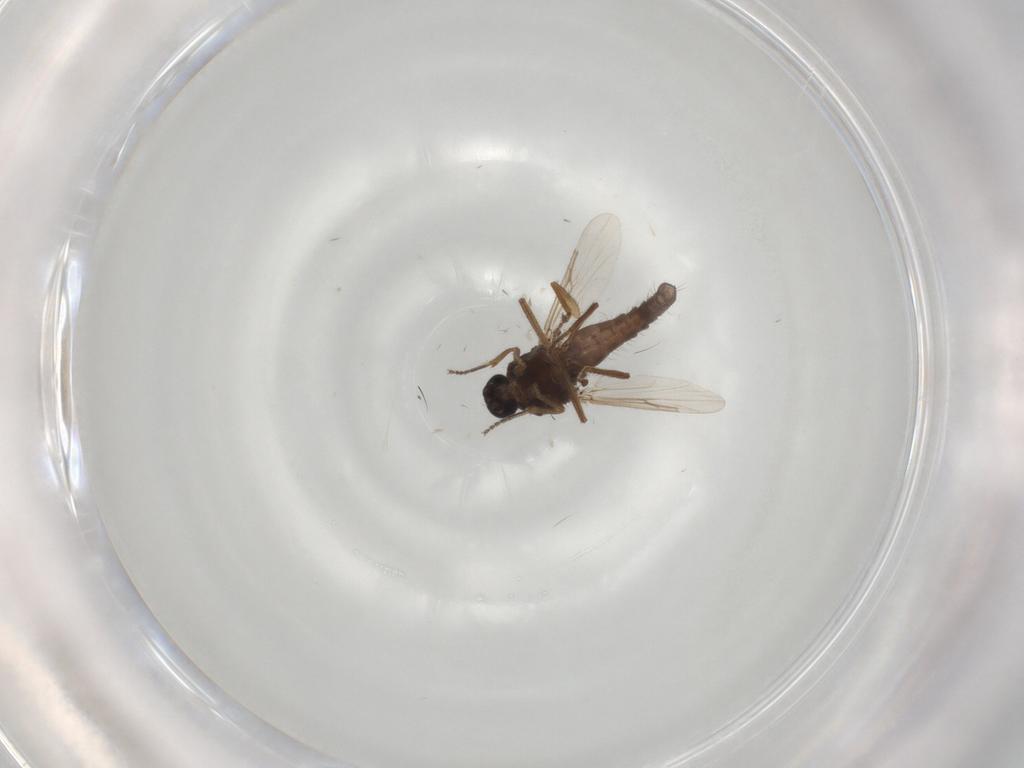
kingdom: Animalia
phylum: Arthropoda
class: Insecta
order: Diptera
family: Ceratopogonidae
